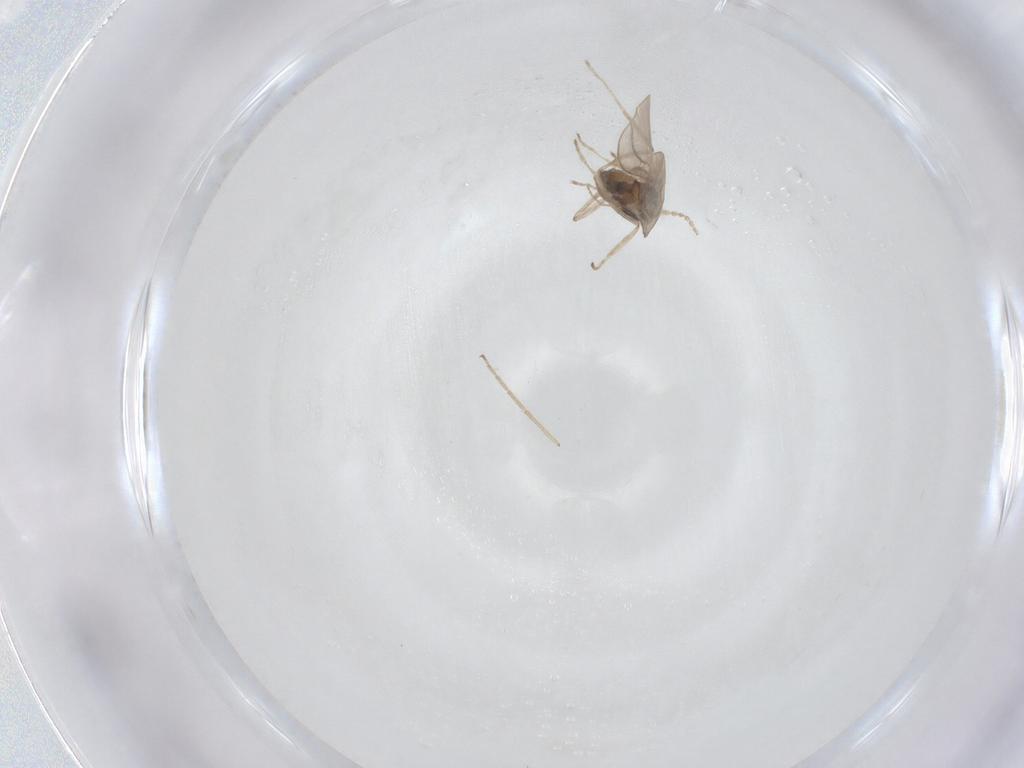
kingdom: Animalia
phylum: Arthropoda
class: Insecta
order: Diptera
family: Cecidomyiidae
